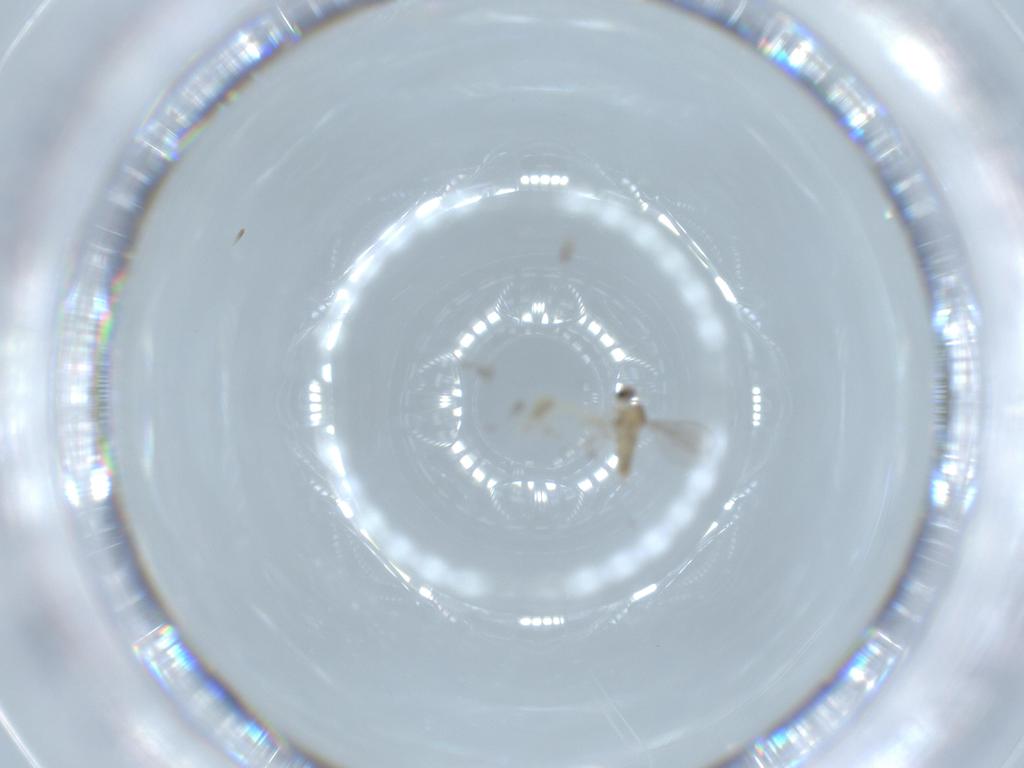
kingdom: Animalia
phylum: Arthropoda
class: Insecta
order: Diptera
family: Cecidomyiidae
